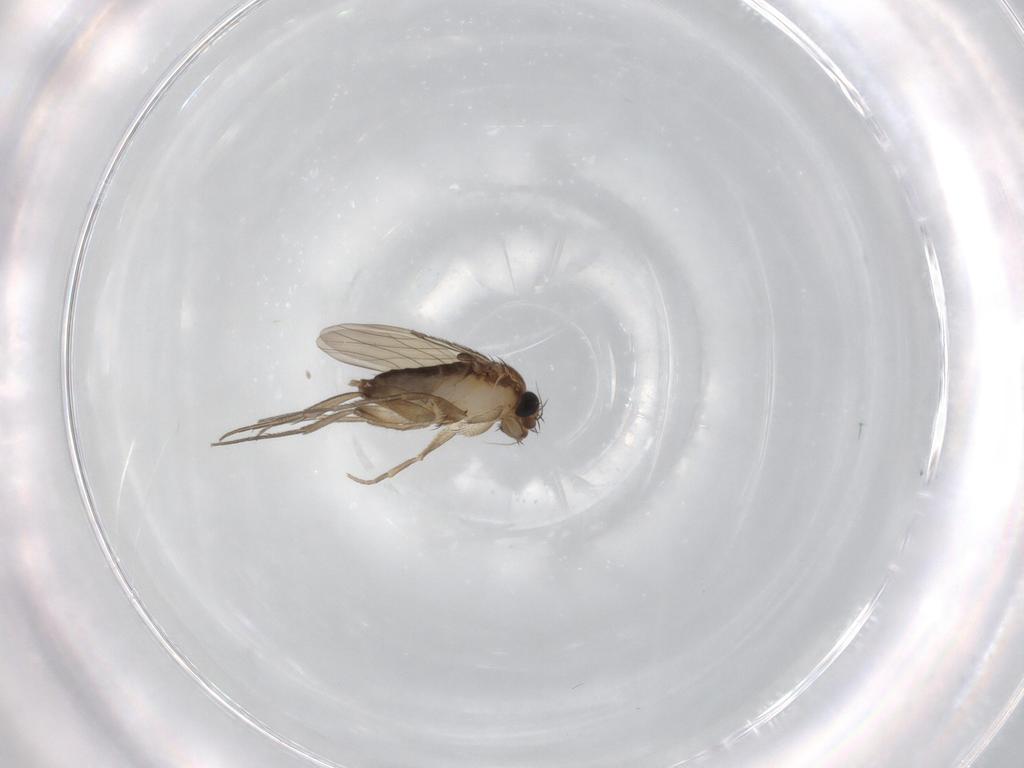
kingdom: Animalia
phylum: Arthropoda
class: Insecta
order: Diptera
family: Phoridae
